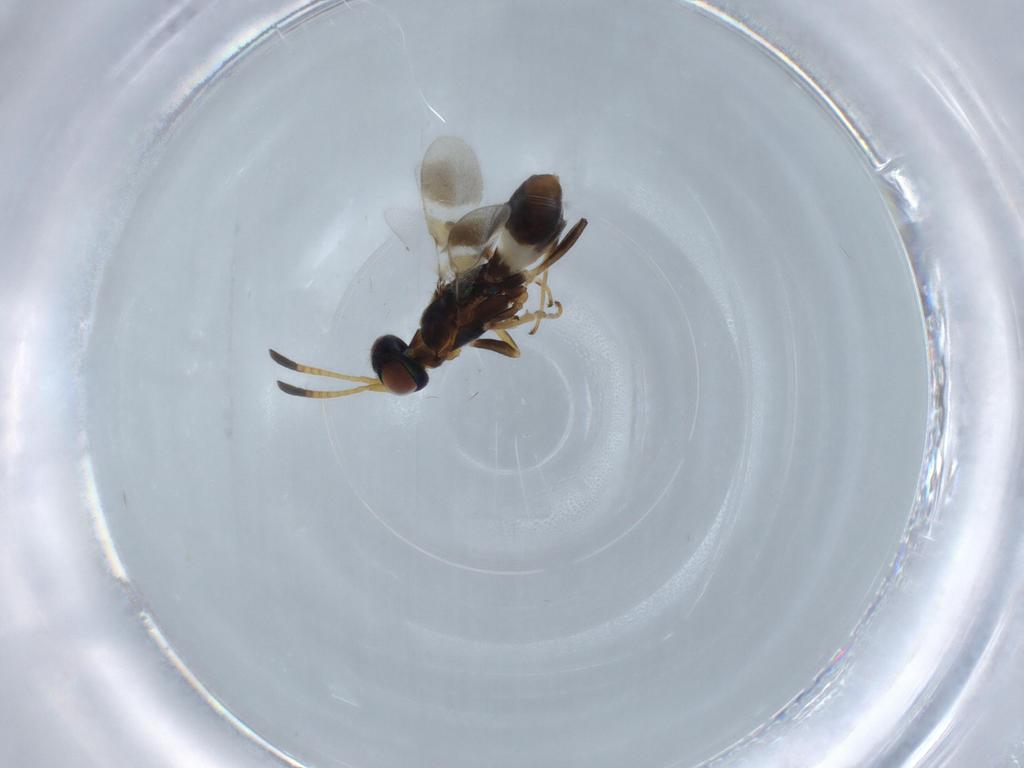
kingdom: Animalia
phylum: Arthropoda
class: Insecta
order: Hymenoptera
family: Eupelmidae
